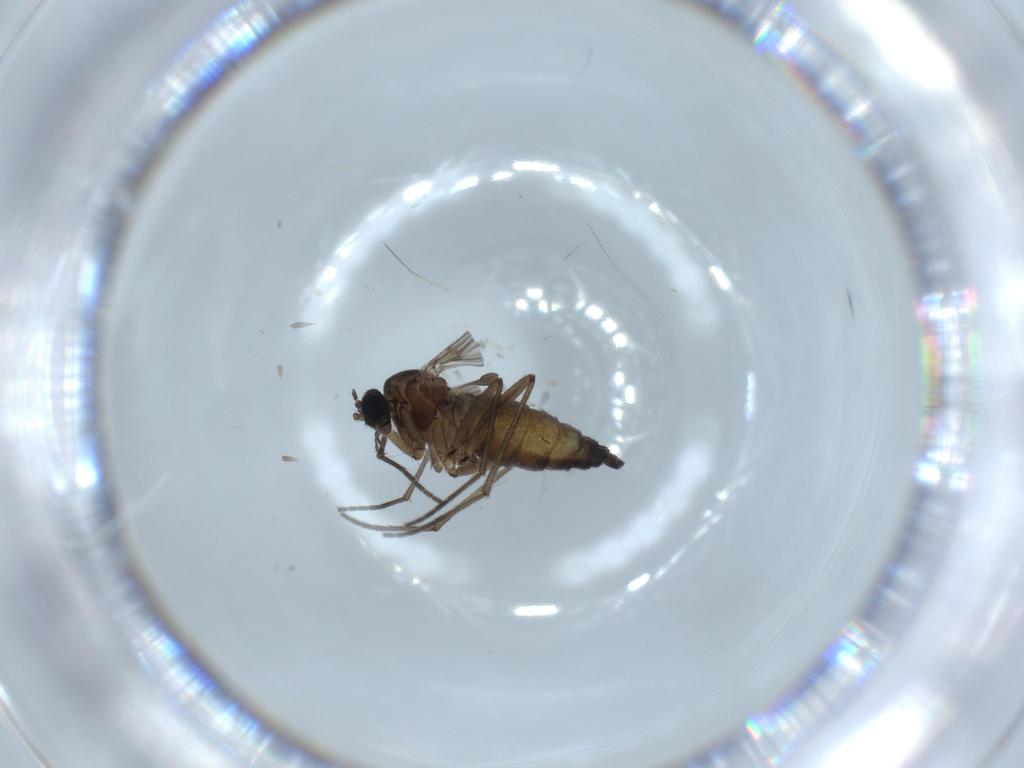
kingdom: Animalia
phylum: Arthropoda
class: Insecta
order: Diptera
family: Sciaridae
